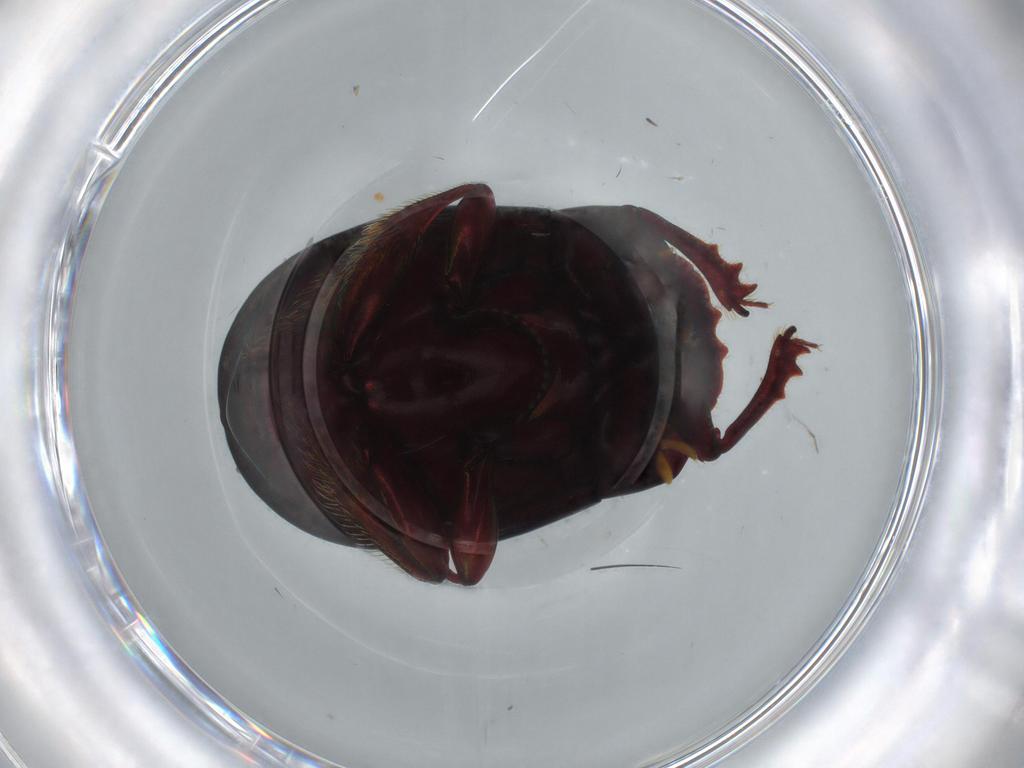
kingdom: Animalia
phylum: Arthropoda
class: Insecta
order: Coleoptera
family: Scarabaeidae
